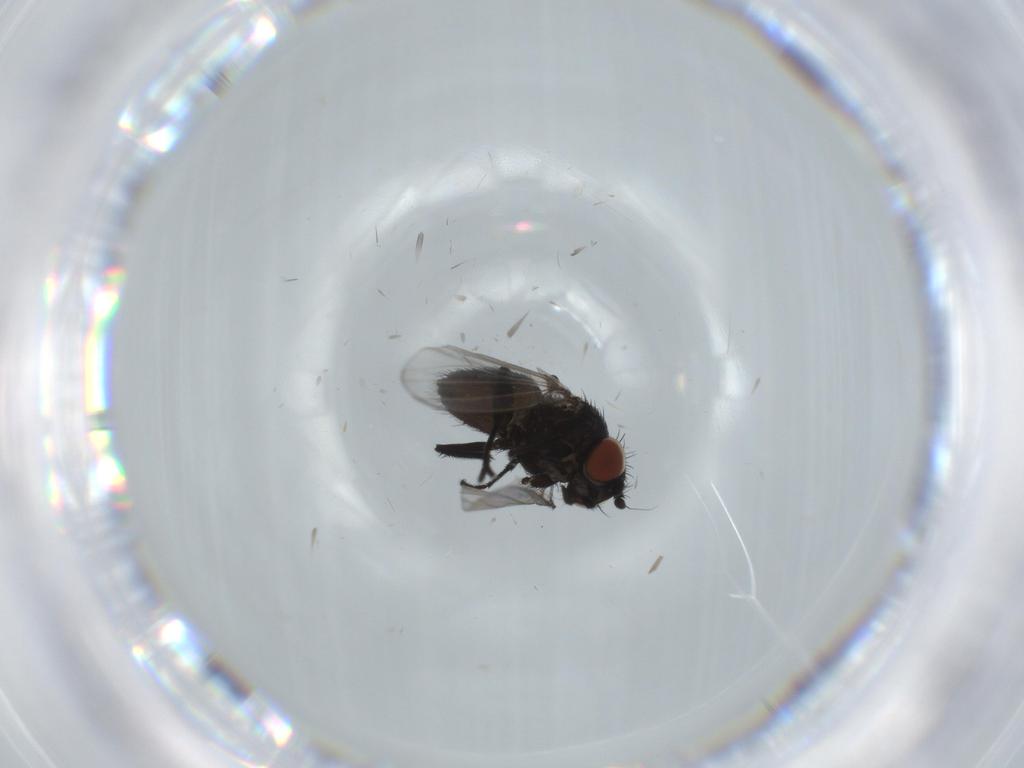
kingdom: Animalia
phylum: Arthropoda
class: Insecta
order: Diptera
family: Milichiidae
